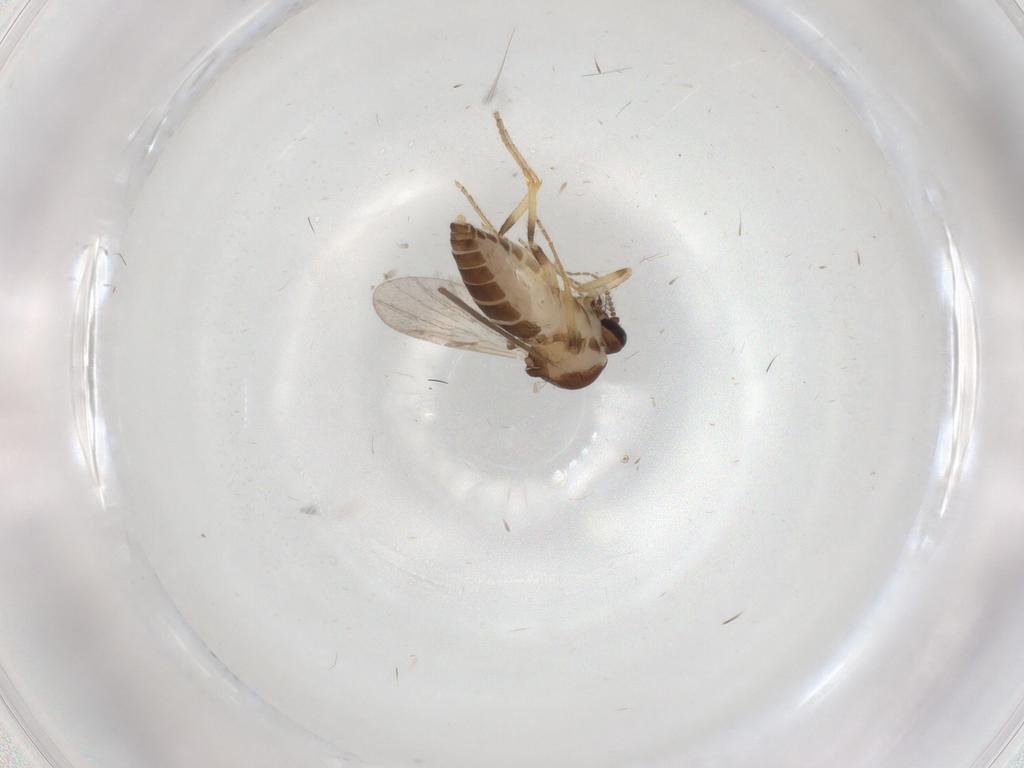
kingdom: Animalia
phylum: Arthropoda
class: Insecta
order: Diptera
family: Ceratopogonidae
